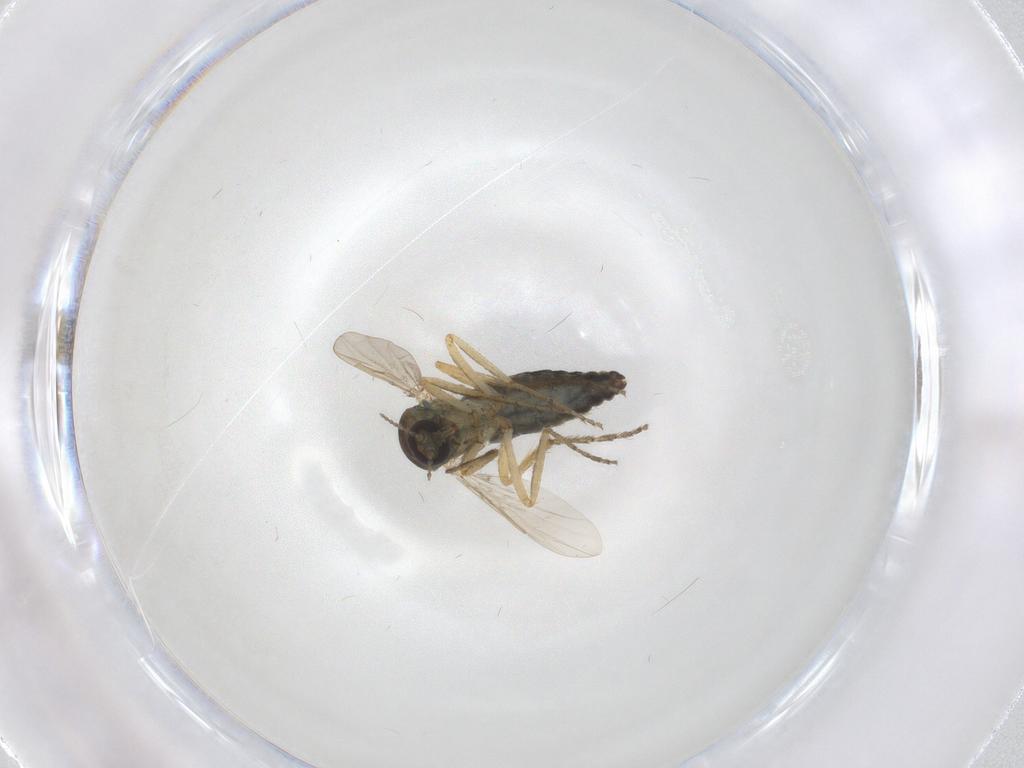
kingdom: Animalia
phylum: Arthropoda
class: Insecta
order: Diptera
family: Ceratopogonidae
